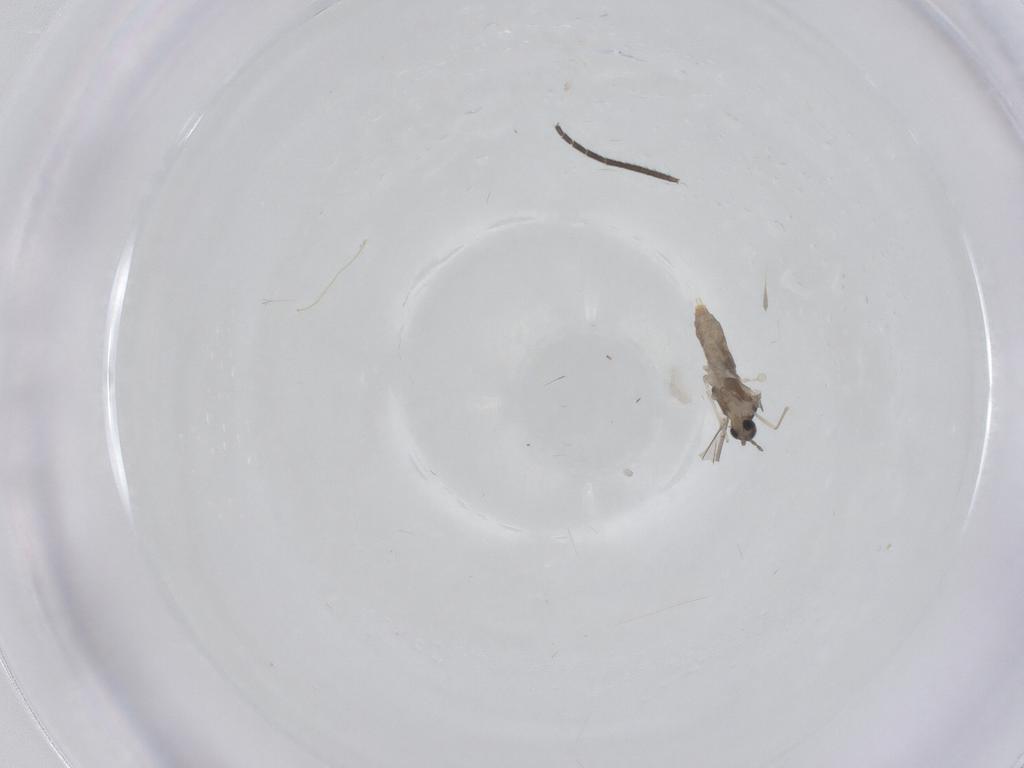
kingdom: Animalia
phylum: Arthropoda
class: Insecta
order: Diptera
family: Sciaridae
